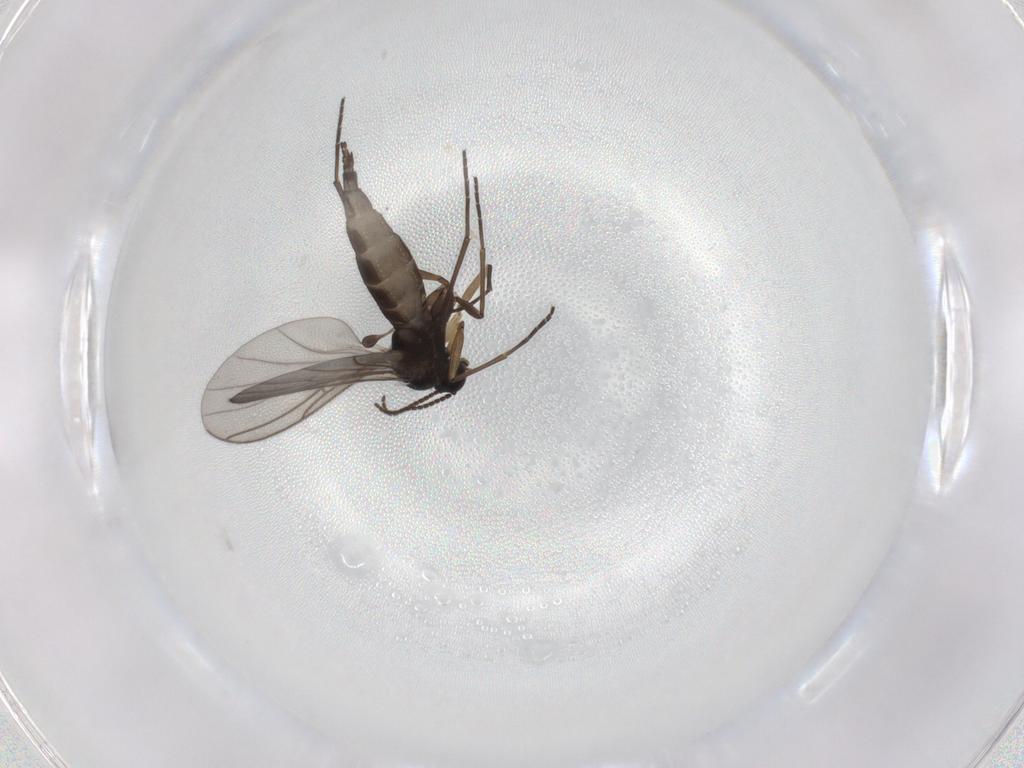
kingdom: Animalia
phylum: Arthropoda
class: Insecta
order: Diptera
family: Sciaridae
